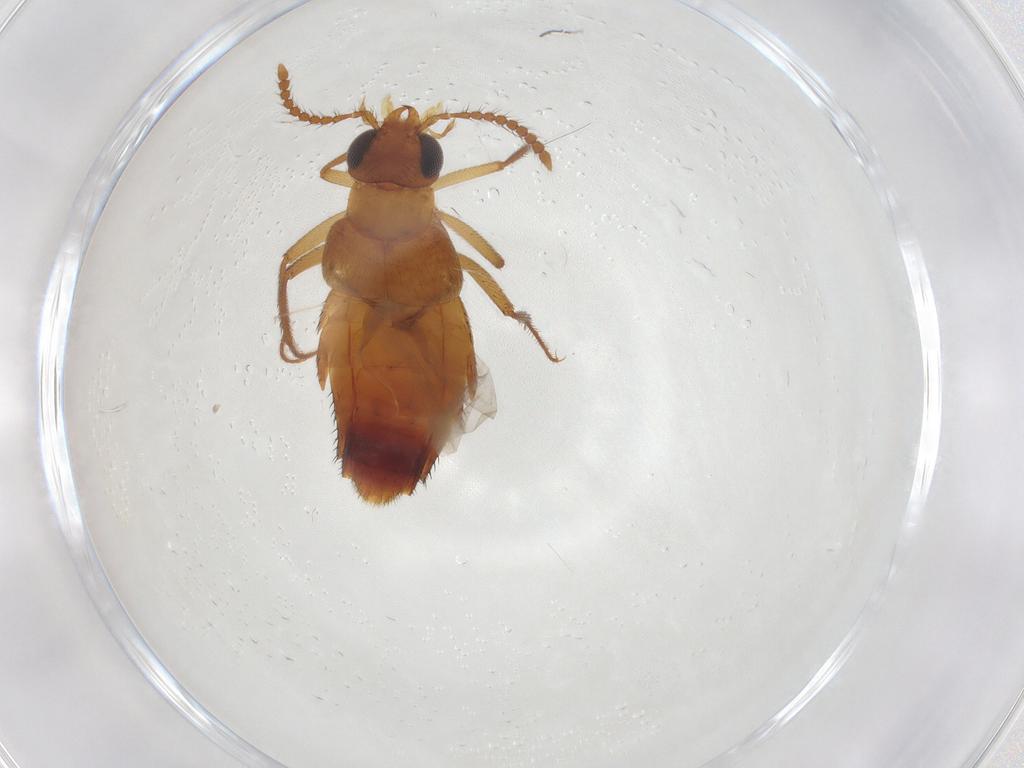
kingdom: Animalia
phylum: Arthropoda
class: Insecta
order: Coleoptera
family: Staphylinidae
